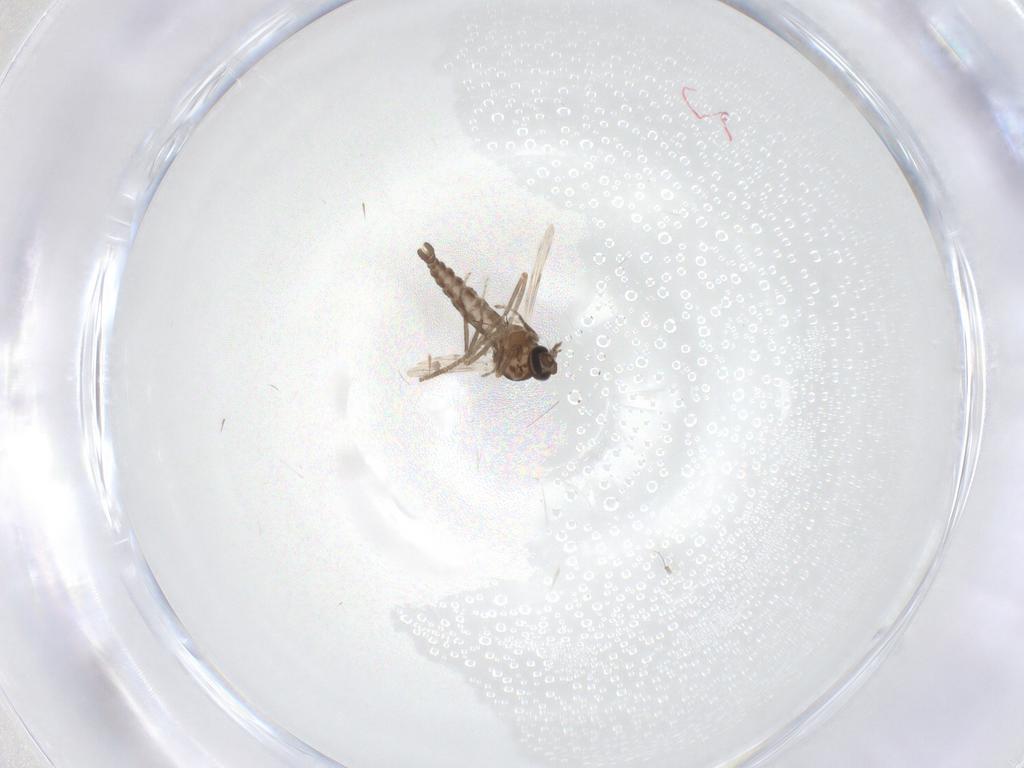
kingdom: Animalia
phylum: Arthropoda
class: Insecta
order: Diptera
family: Ceratopogonidae
